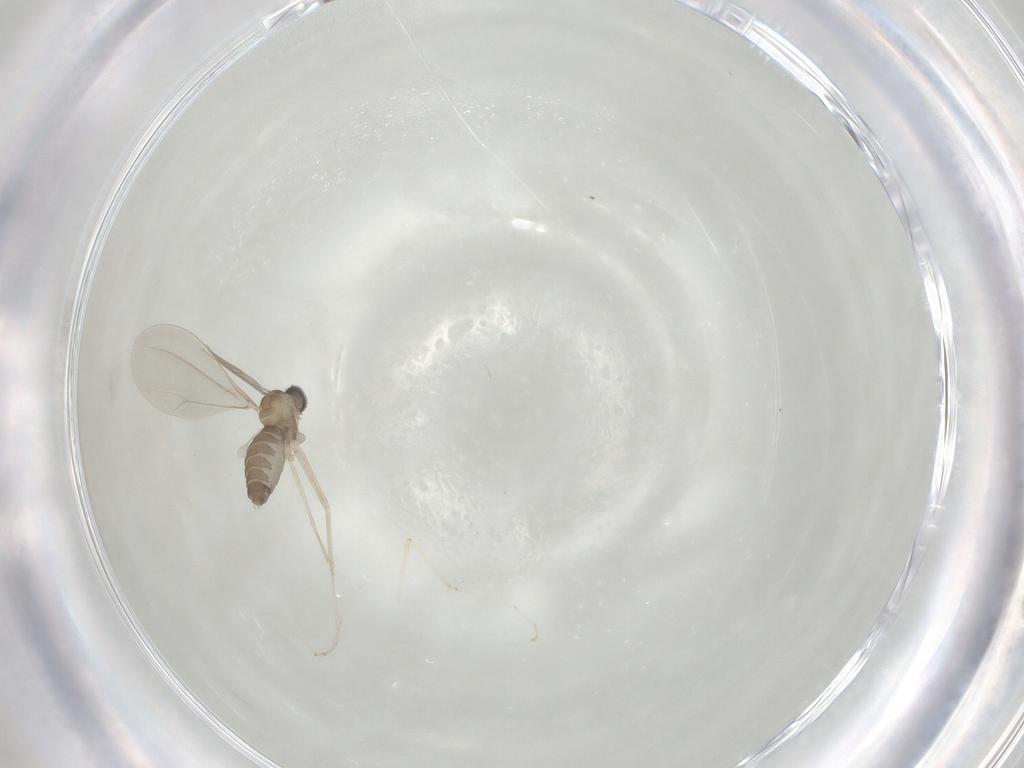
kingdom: Animalia
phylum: Arthropoda
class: Insecta
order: Diptera
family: Cecidomyiidae
